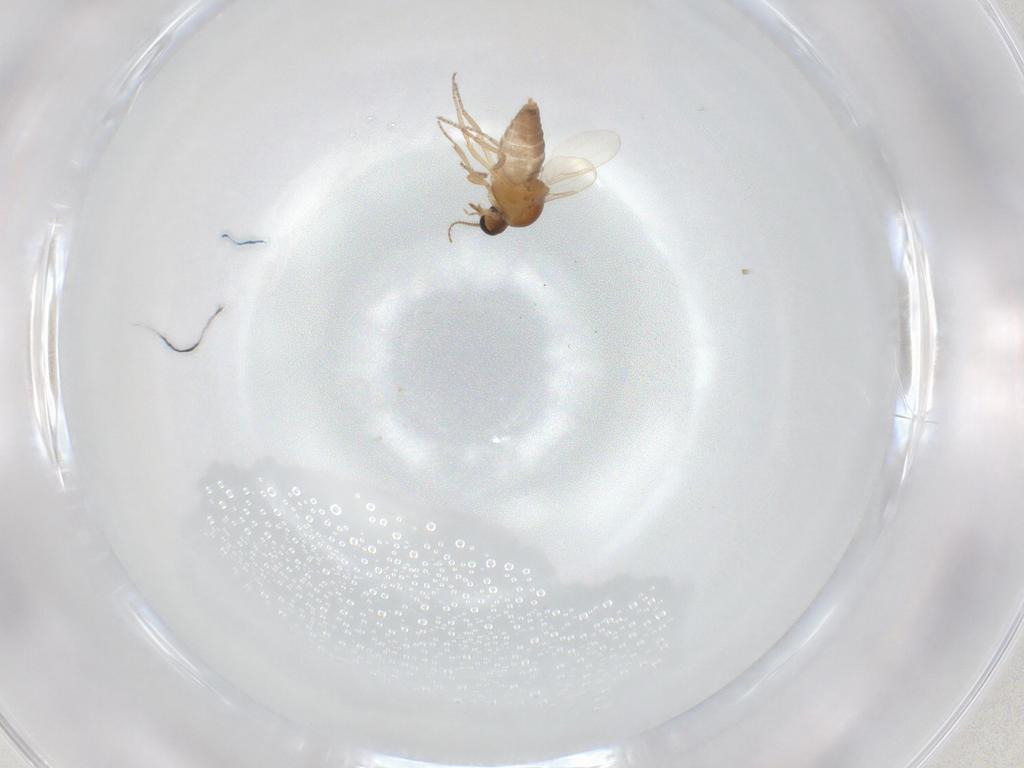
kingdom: Animalia
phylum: Arthropoda
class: Insecta
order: Diptera
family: Ceratopogonidae
